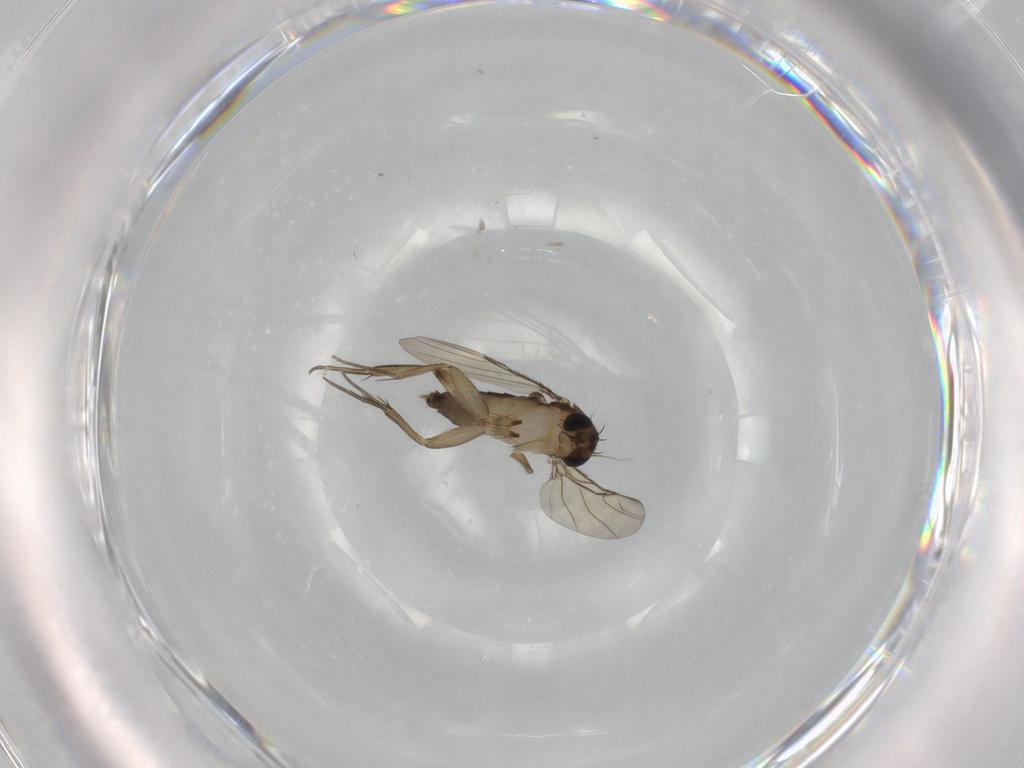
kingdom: Animalia
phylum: Arthropoda
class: Insecta
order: Diptera
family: Phoridae
